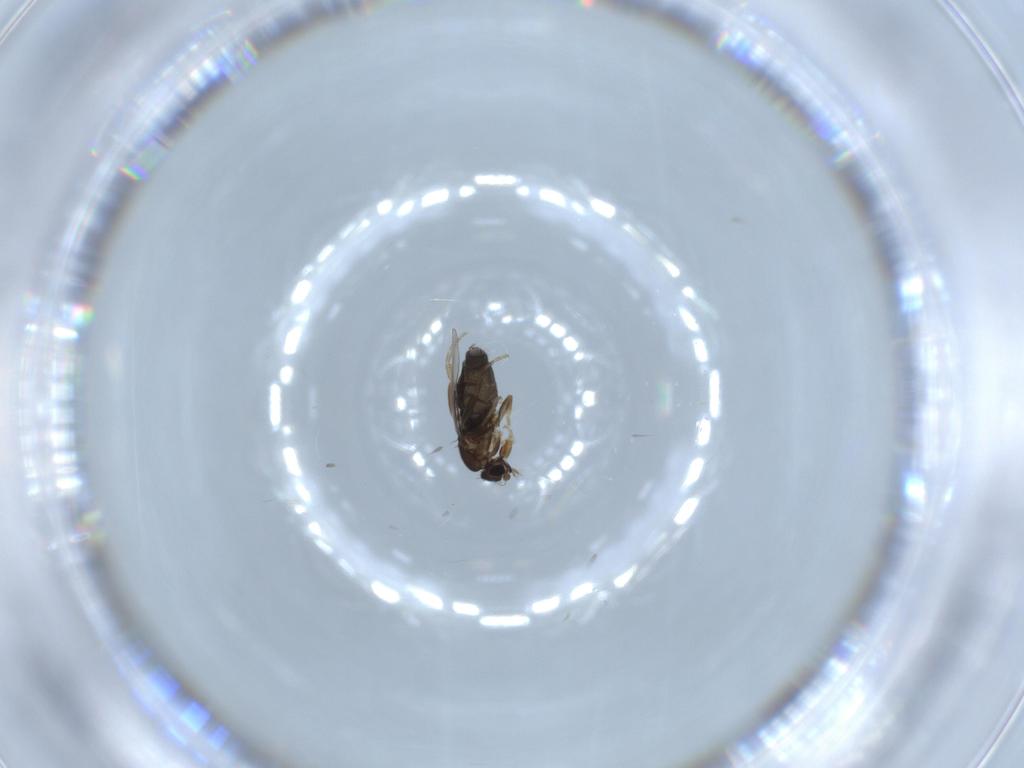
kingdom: Animalia
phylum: Arthropoda
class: Insecta
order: Diptera
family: Phoridae
